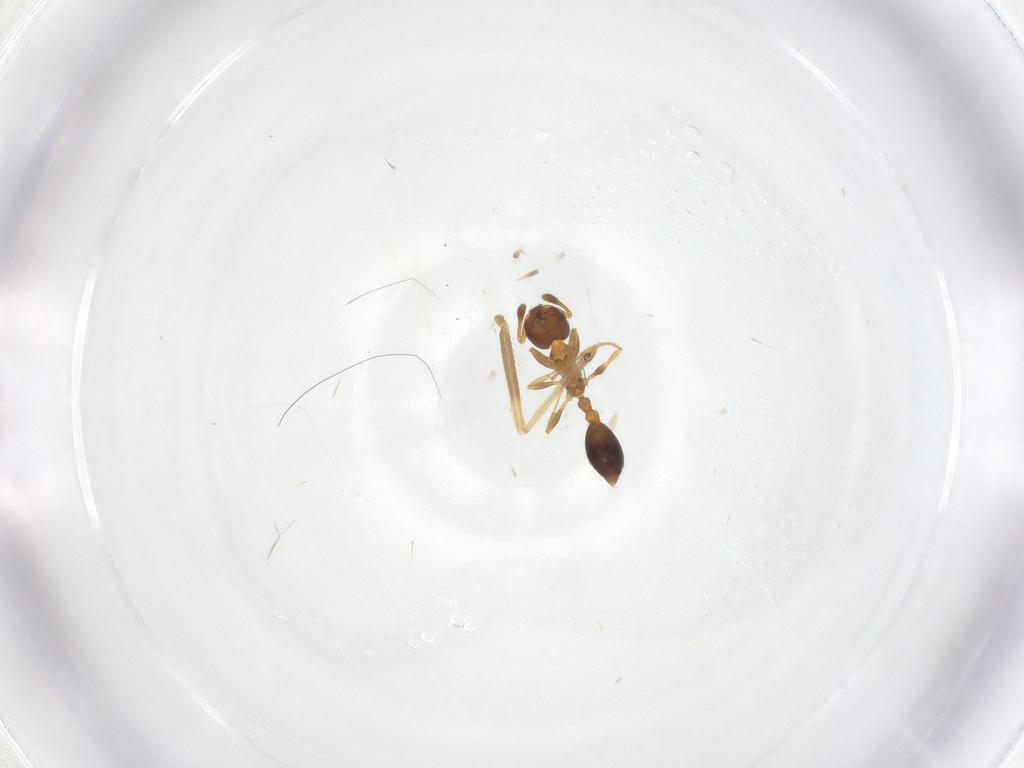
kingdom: Animalia
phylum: Arthropoda
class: Insecta
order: Hymenoptera
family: Formicidae
